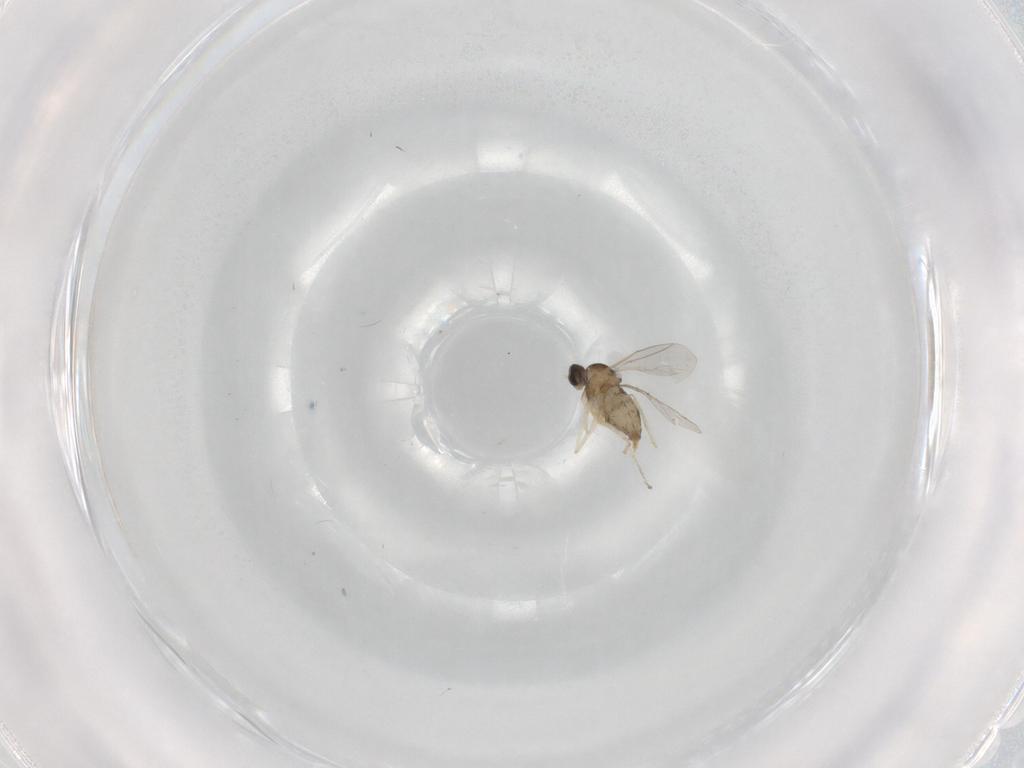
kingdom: Animalia
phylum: Arthropoda
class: Insecta
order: Diptera
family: Cecidomyiidae
